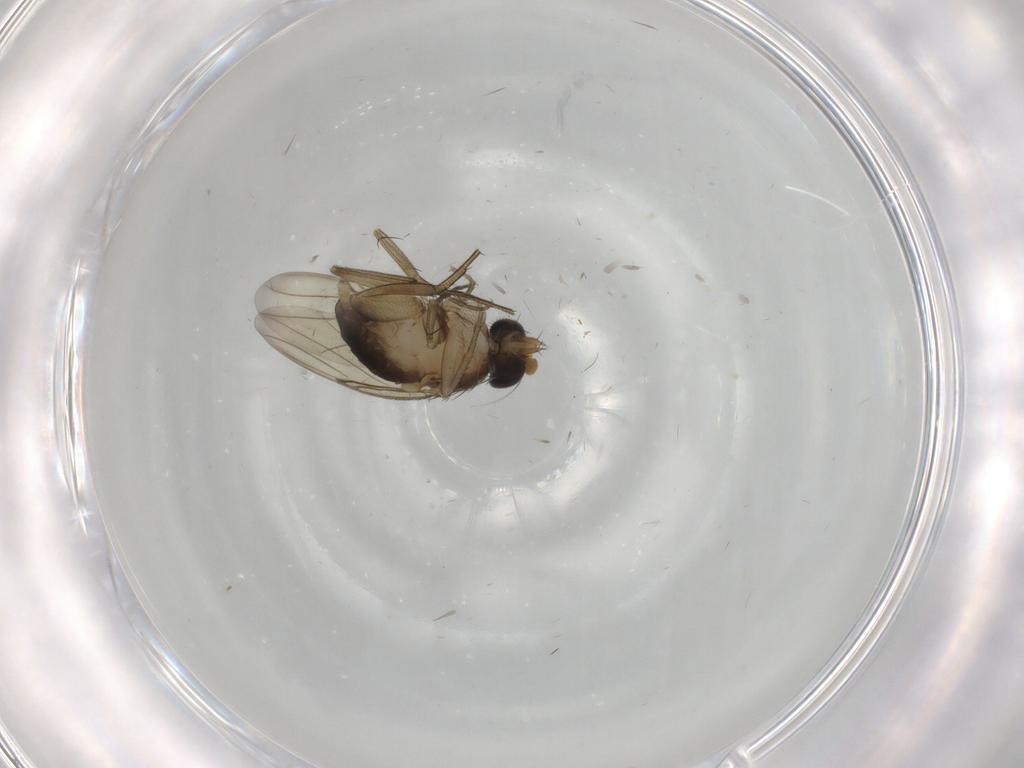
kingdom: Animalia
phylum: Arthropoda
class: Insecta
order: Diptera
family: Phoridae
